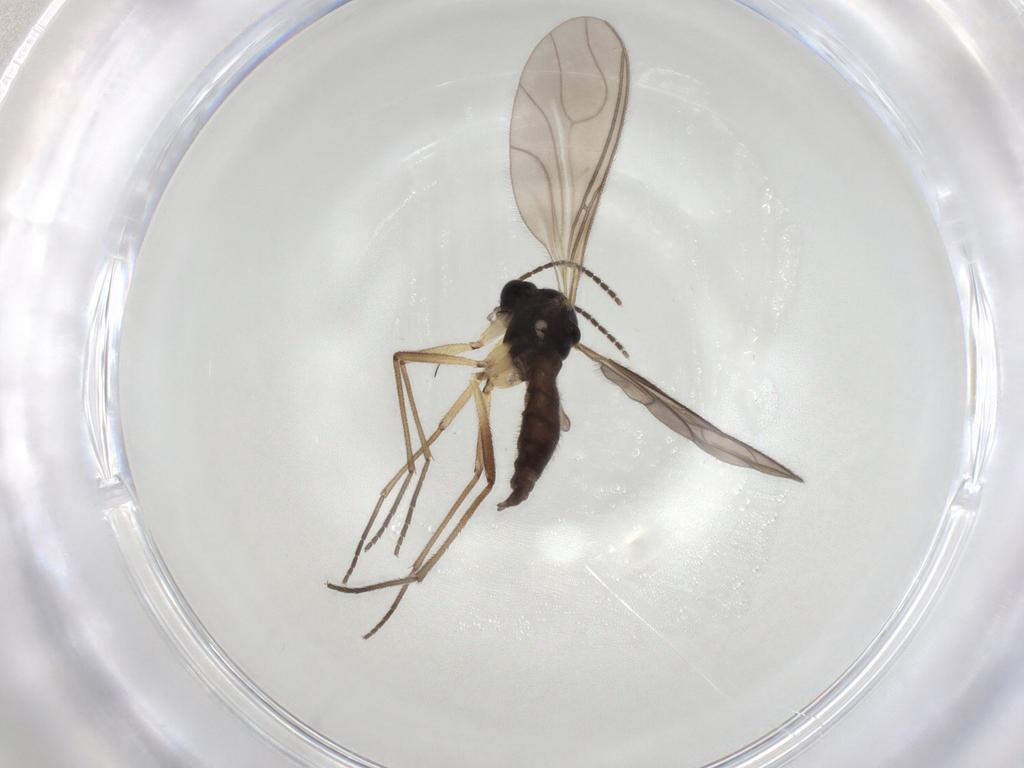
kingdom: Animalia
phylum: Arthropoda
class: Insecta
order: Diptera
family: Sciaridae
